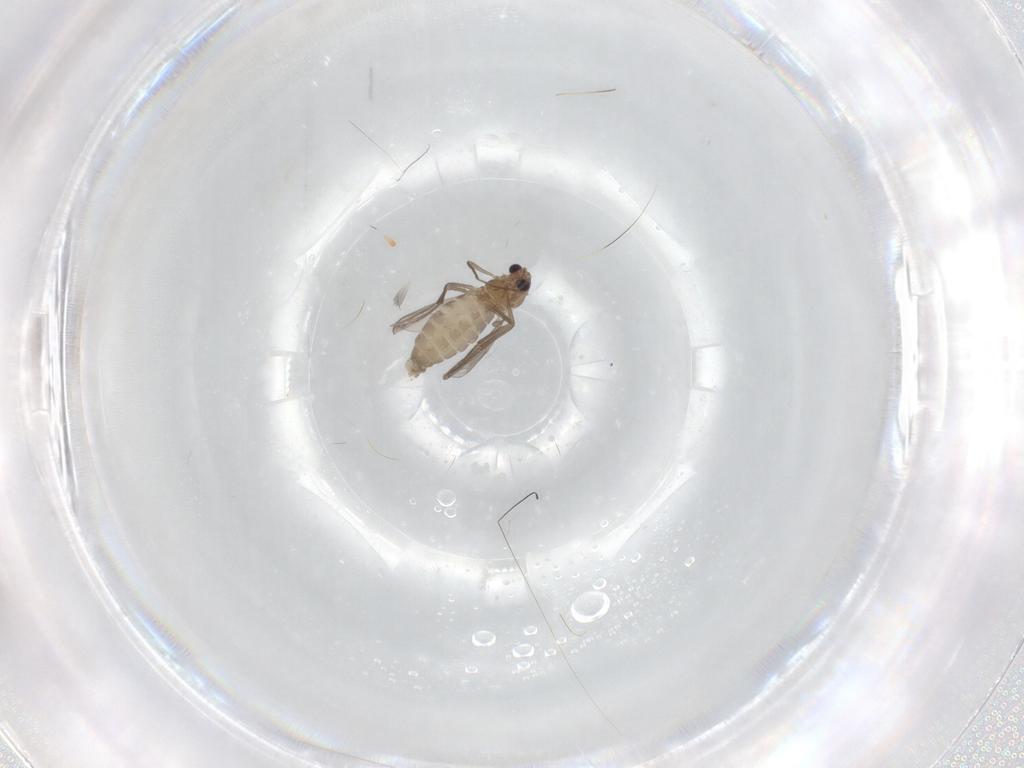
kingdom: Animalia
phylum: Arthropoda
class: Insecta
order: Diptera
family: Chironomidae
